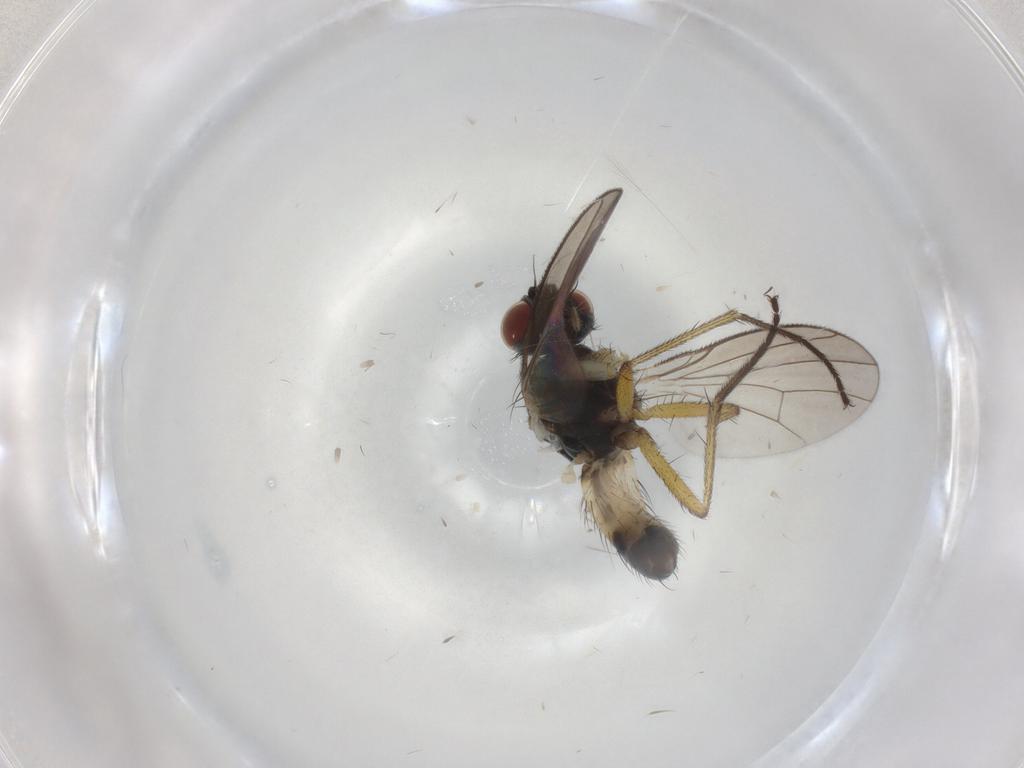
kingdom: Animalia
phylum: Arthropoda
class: Insecta
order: Diptera
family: Muscidae
